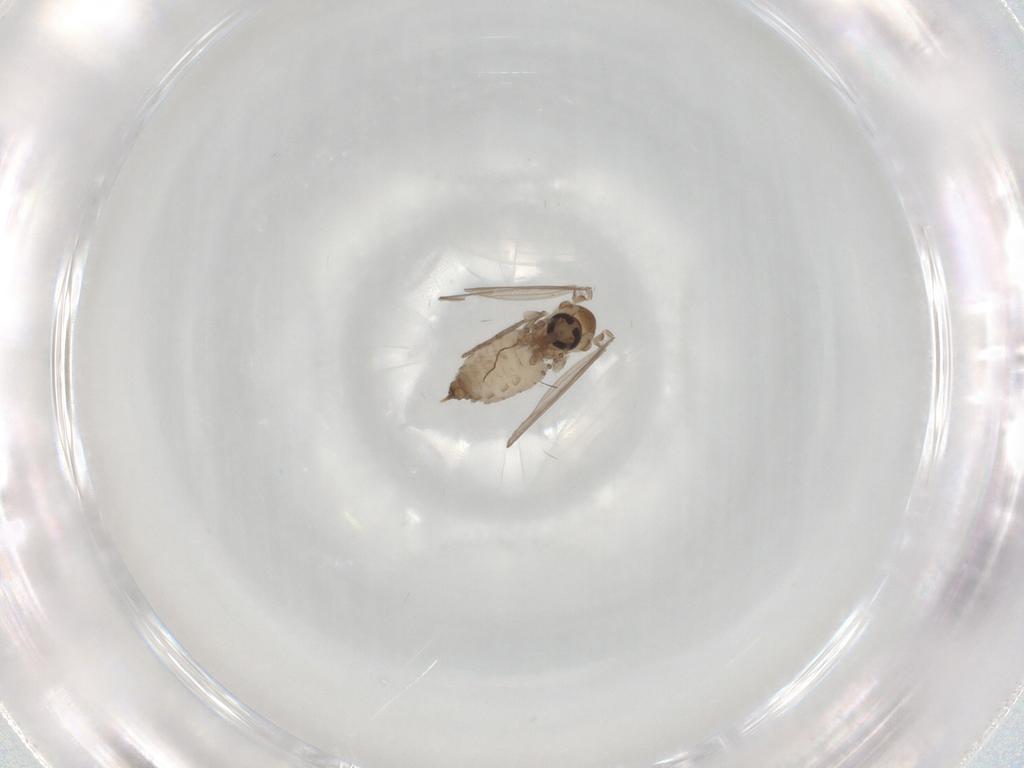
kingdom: Animalia
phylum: Arthropoda
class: Insecta
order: Diptera
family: Psychodidae
